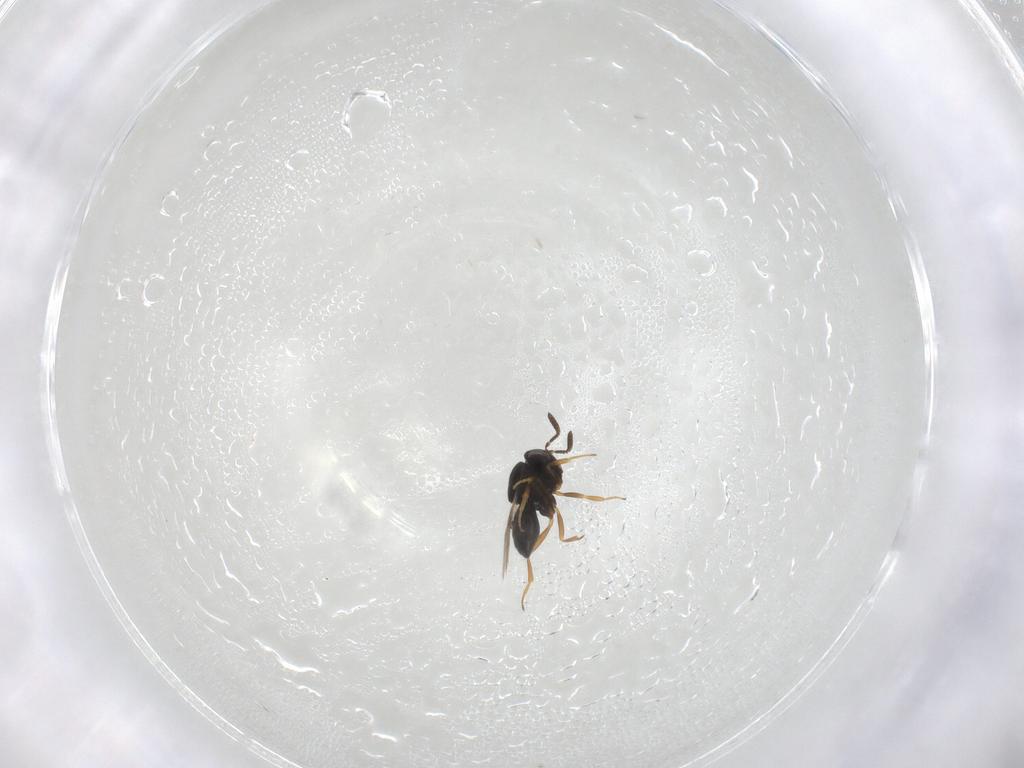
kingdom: Animalia
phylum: Arthropoda
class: Insecta
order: Hymenoptera
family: Scelionidae
